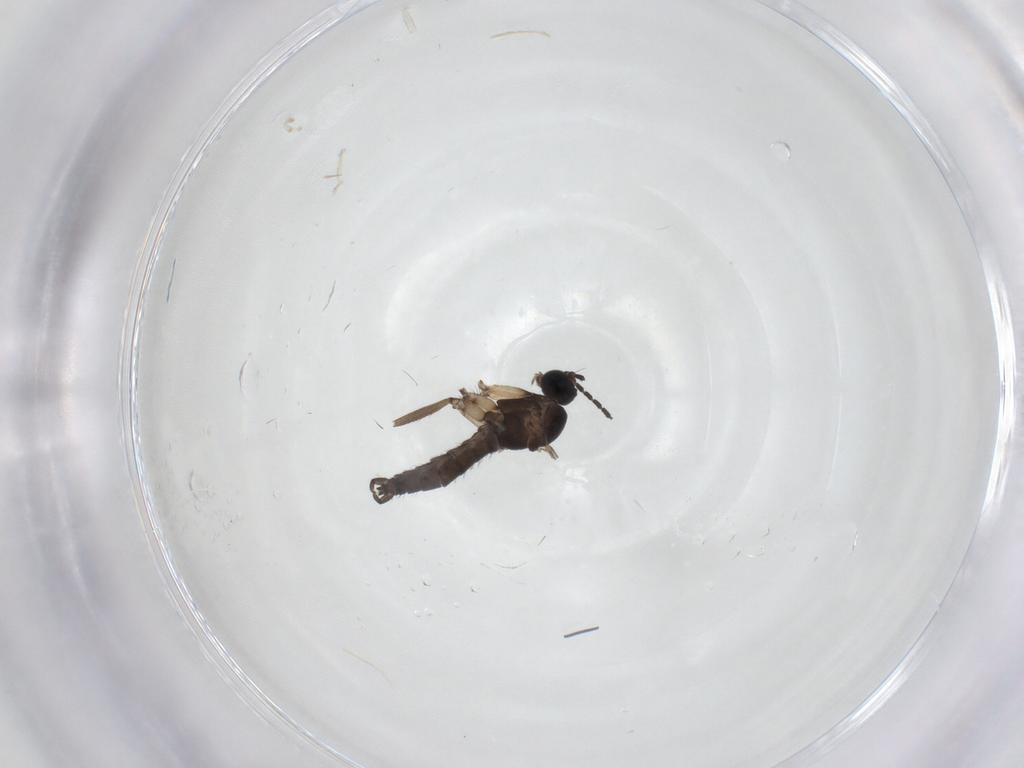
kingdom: Animalia
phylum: Arthropoda
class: Insecta
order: Diptera
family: Sciaridae
